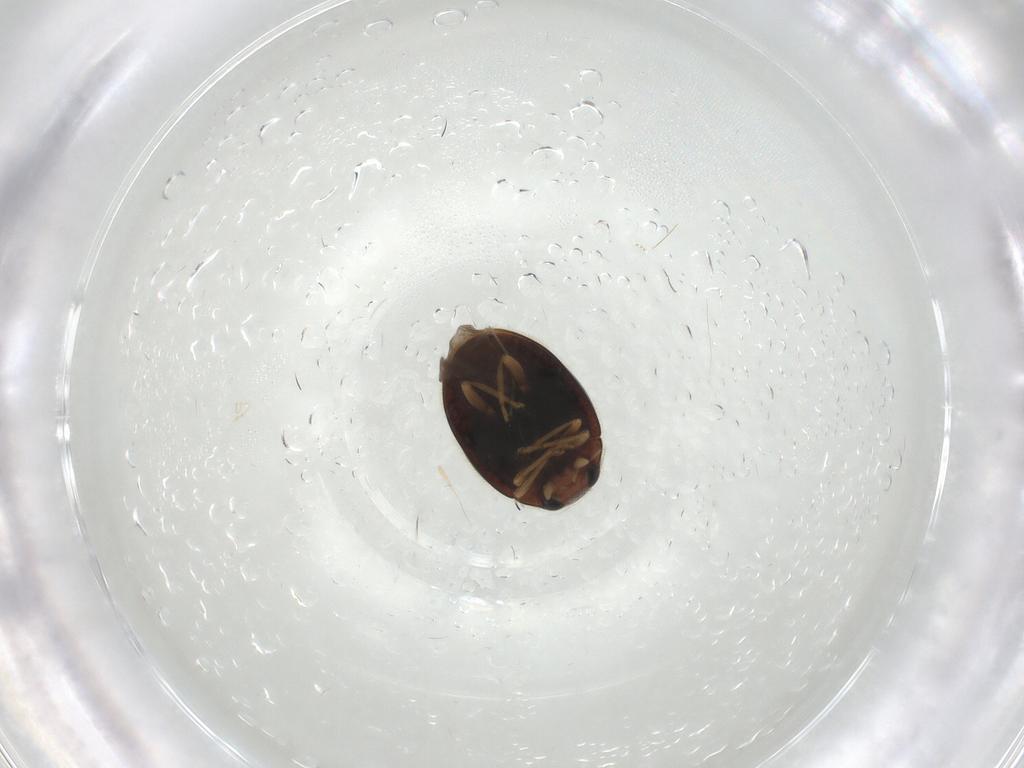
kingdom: Animalia
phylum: Arthropoda
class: Insecta
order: Coleoptera
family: Coccinellidae
